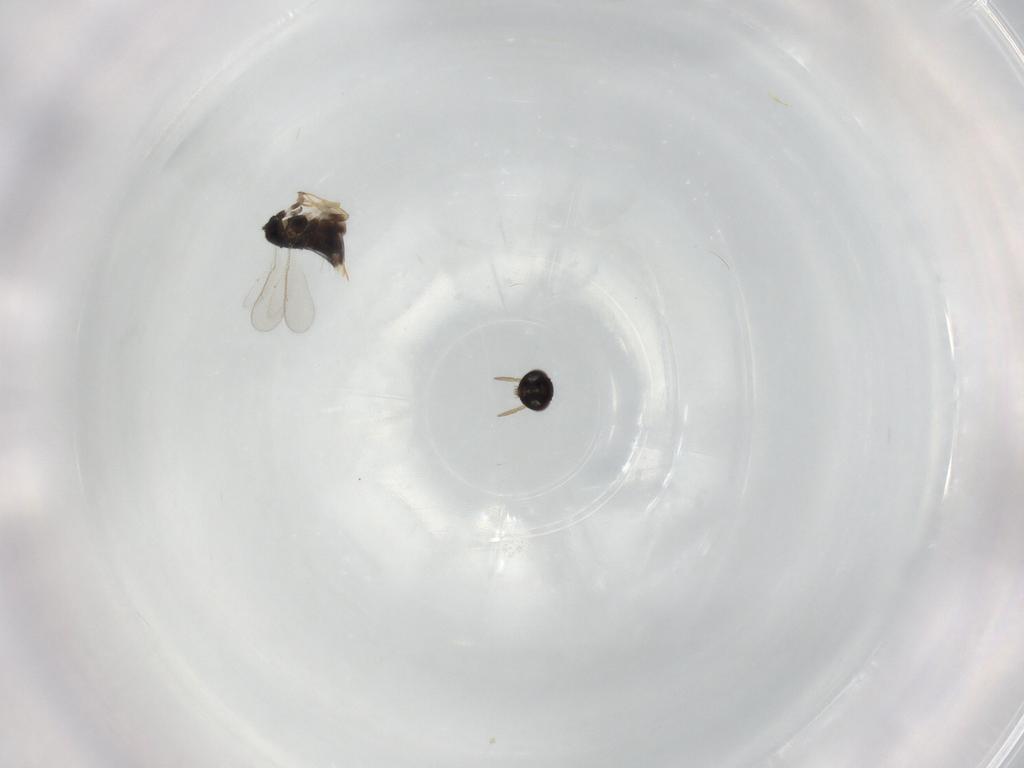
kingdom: Animalia
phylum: Arthropoda
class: Insecta
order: Hymenoptera
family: Aphelinidae
